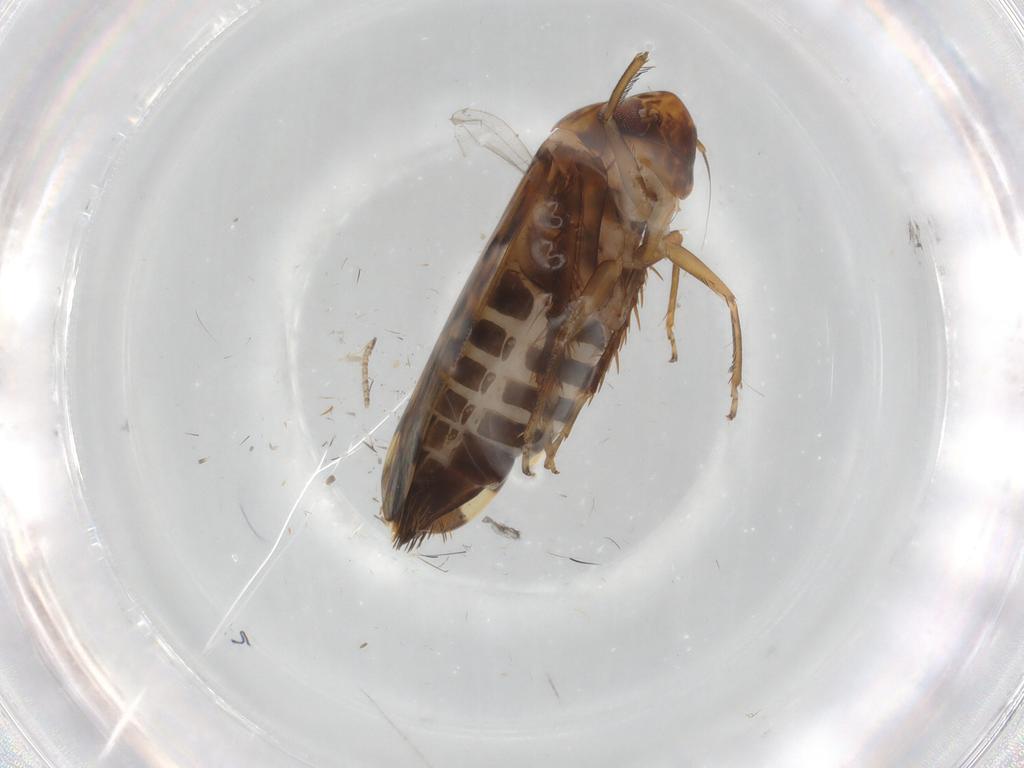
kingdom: Animalia
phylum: Arthropoda
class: Insecta
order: Hemiptera
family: Cicadellidae
